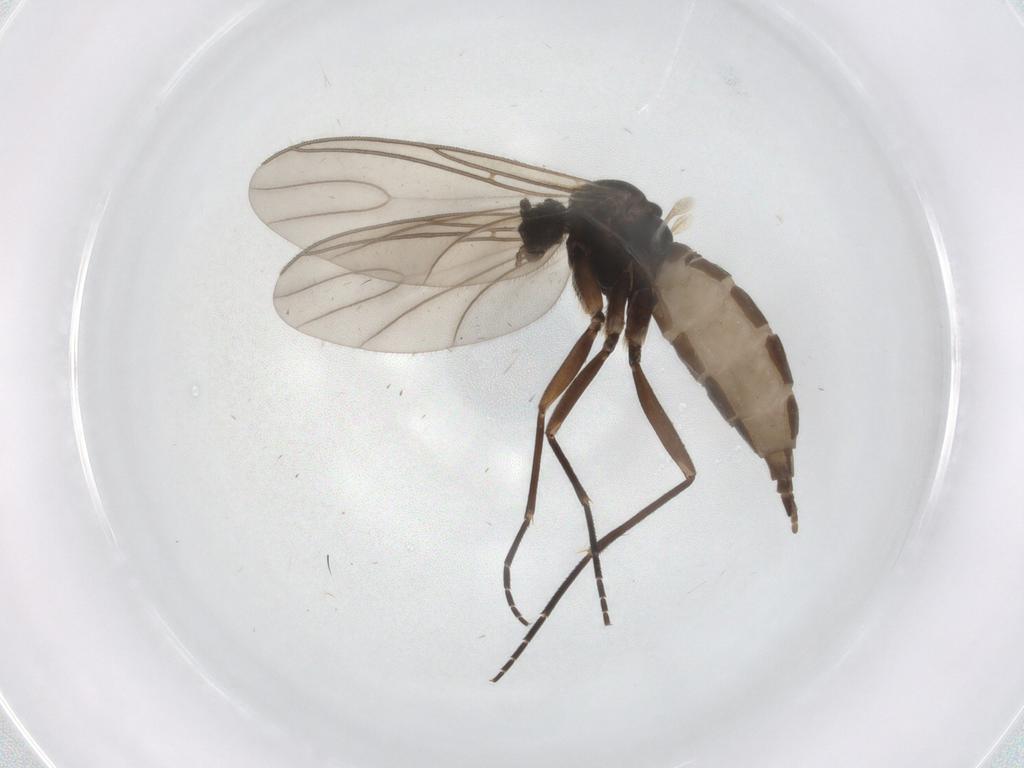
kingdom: Animalia
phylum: Arthropoda
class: Insecta
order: Diptera
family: Sciaridae
